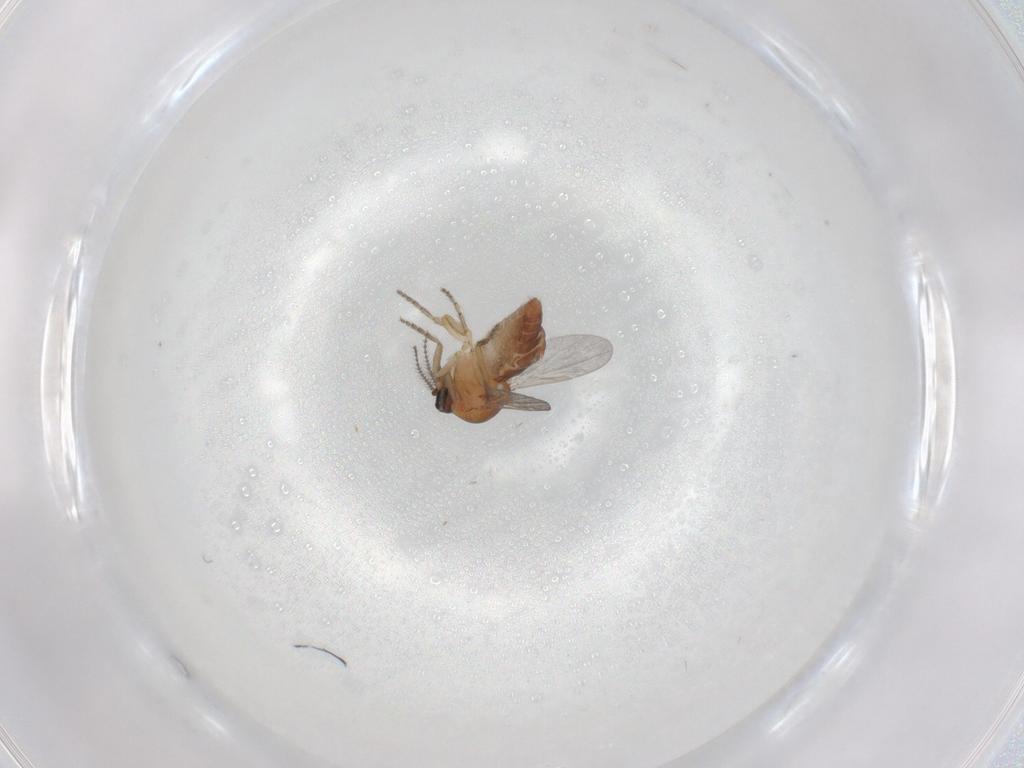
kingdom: Animalia
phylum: Arthropoda
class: Insecta
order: Diptera
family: Ceratopogonidae
